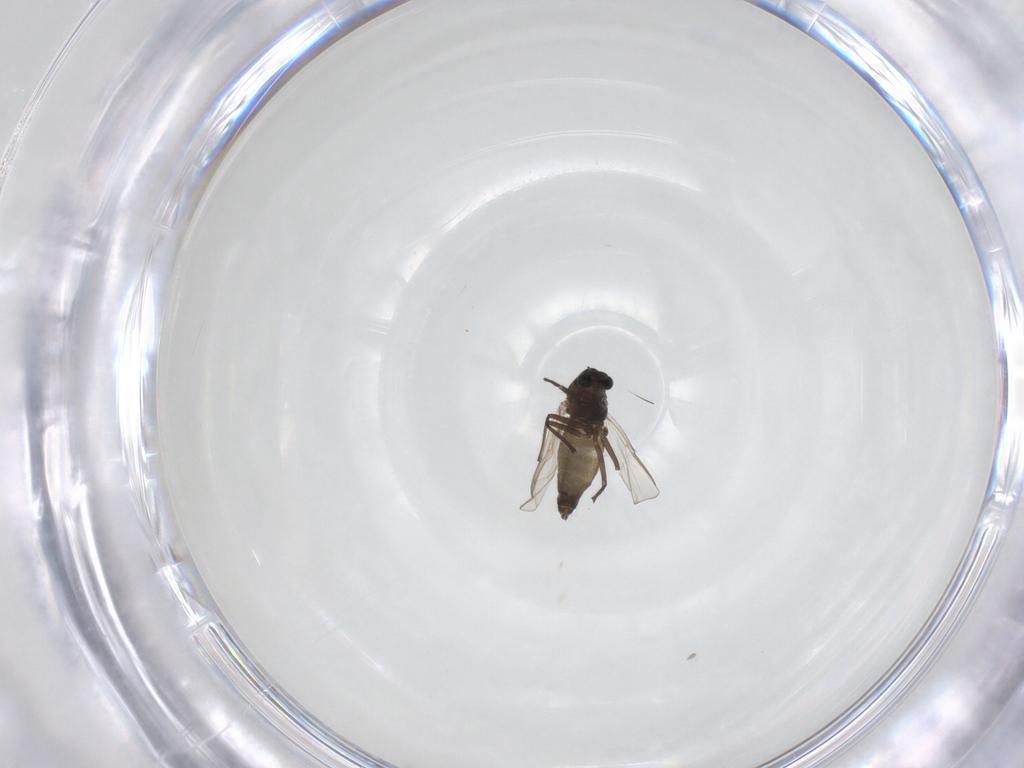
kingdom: Animalia
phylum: Arthropoda
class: Insecta
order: Diptera
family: Chironomidae
